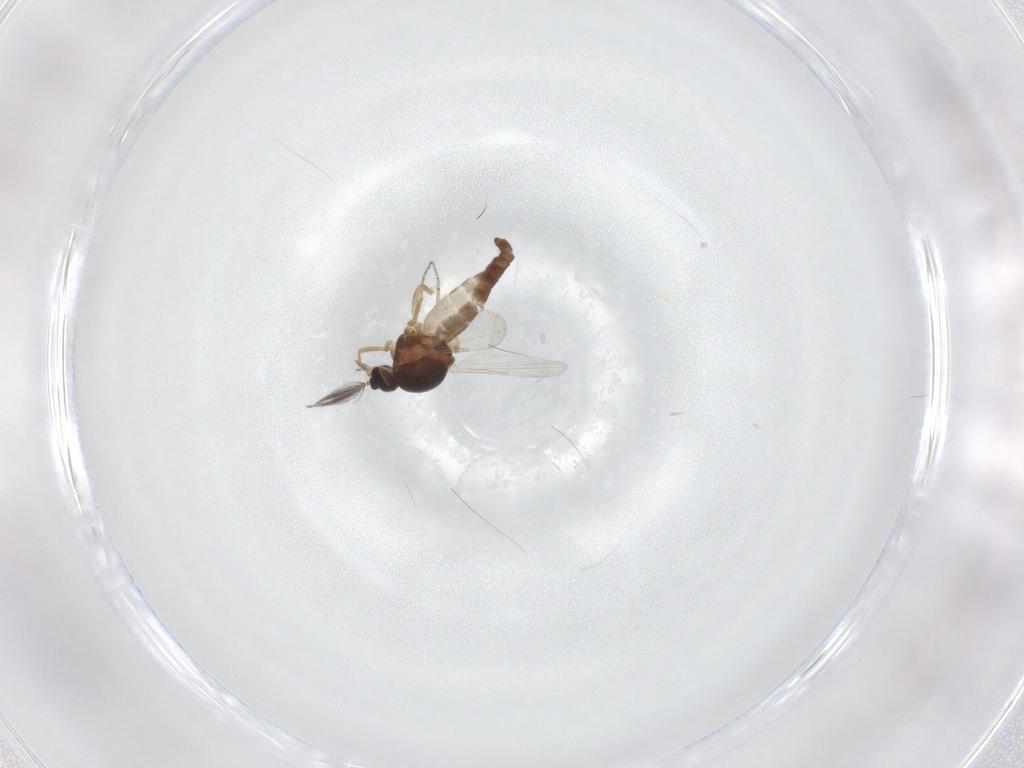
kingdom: Animalia
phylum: Arthropoda
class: Insecta
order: Diptera
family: Ceratopogonidae
